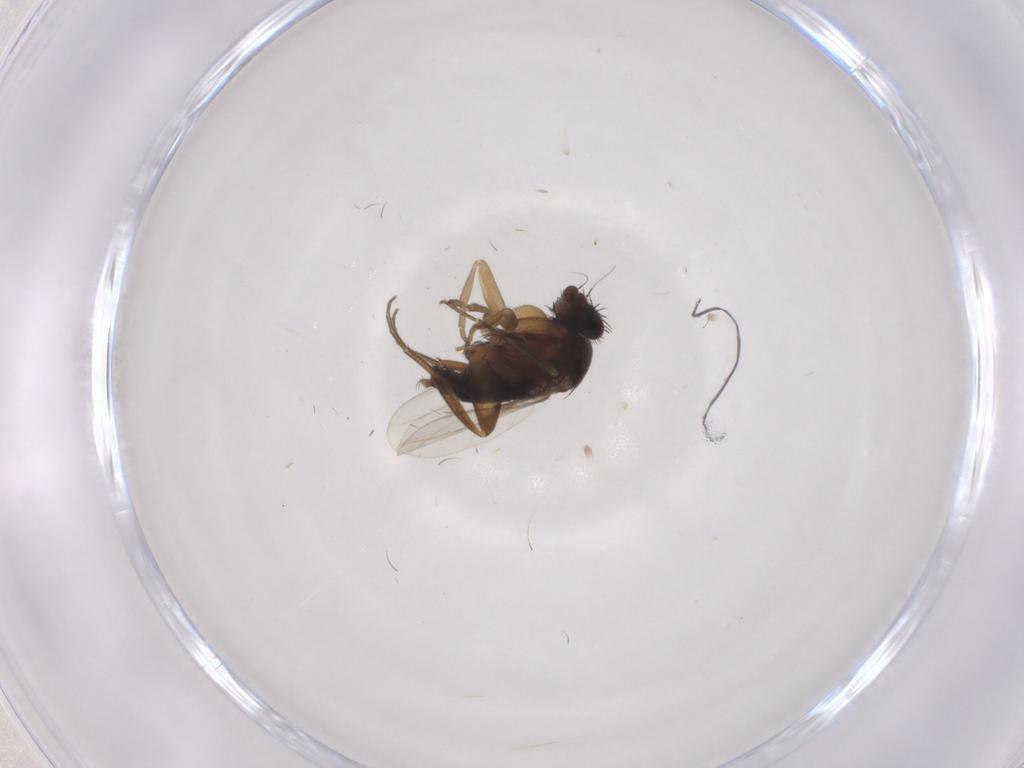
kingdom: Animalia
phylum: Arthropoda
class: Insecta
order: Diptera
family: Phoridae
